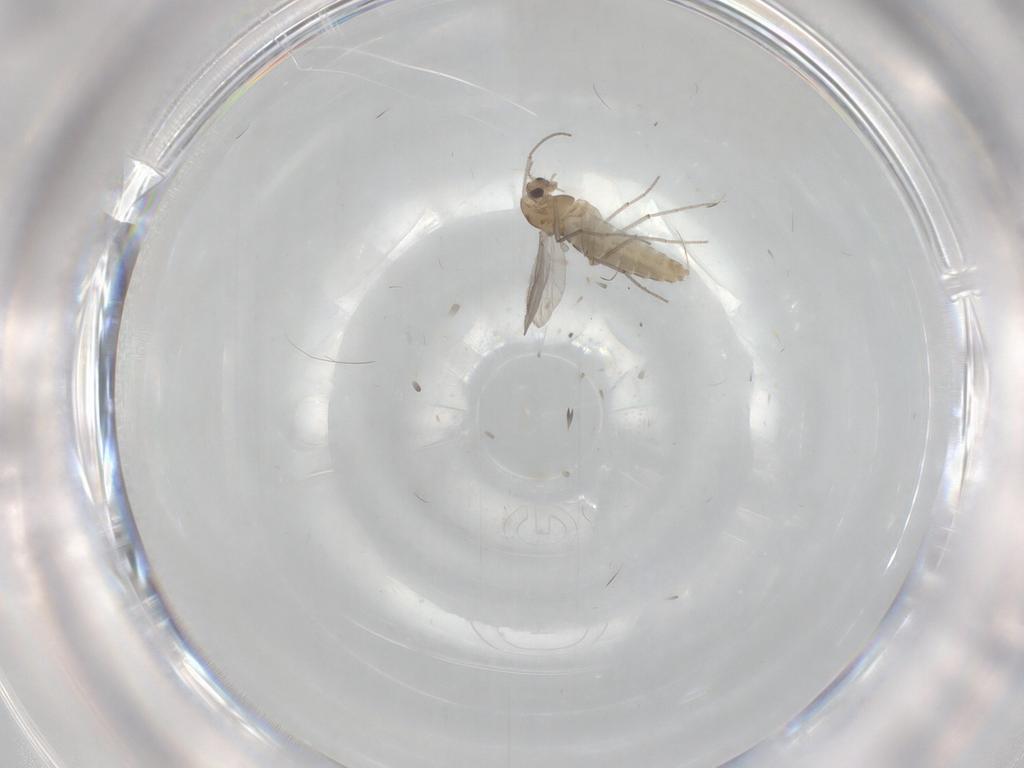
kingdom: Animalia
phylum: Arthropoda
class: Insecta
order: Diptera
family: Chironomidae
